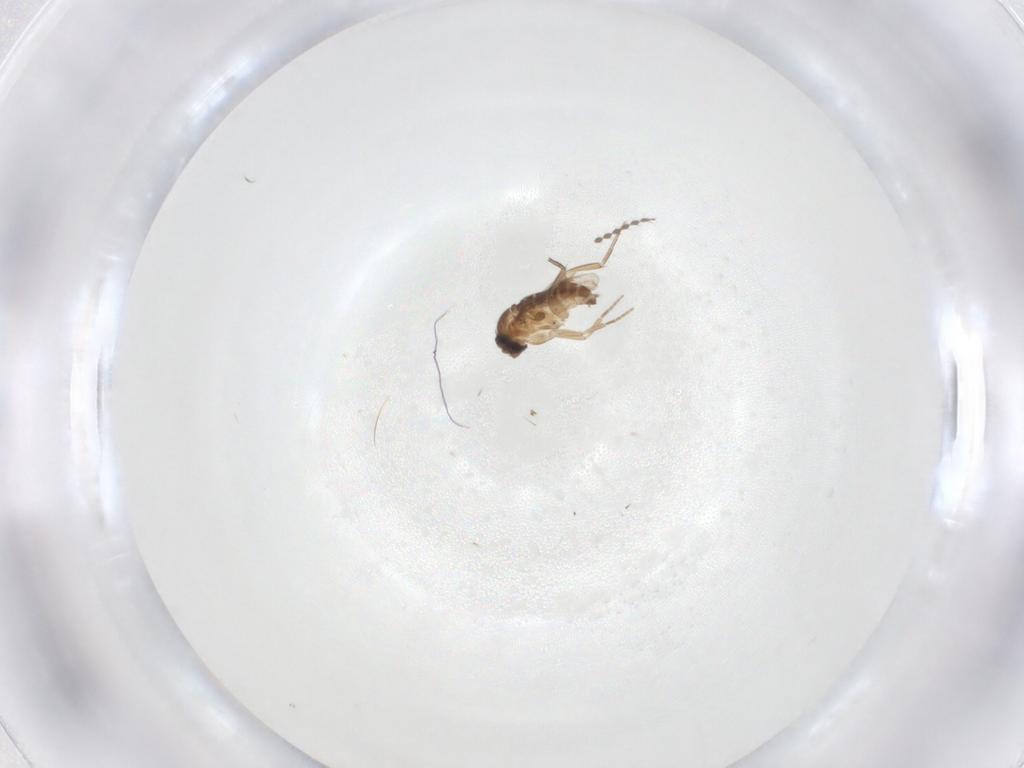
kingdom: Animalia
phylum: Arthropoda
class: Insecta
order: Diptera
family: Limoniidae
